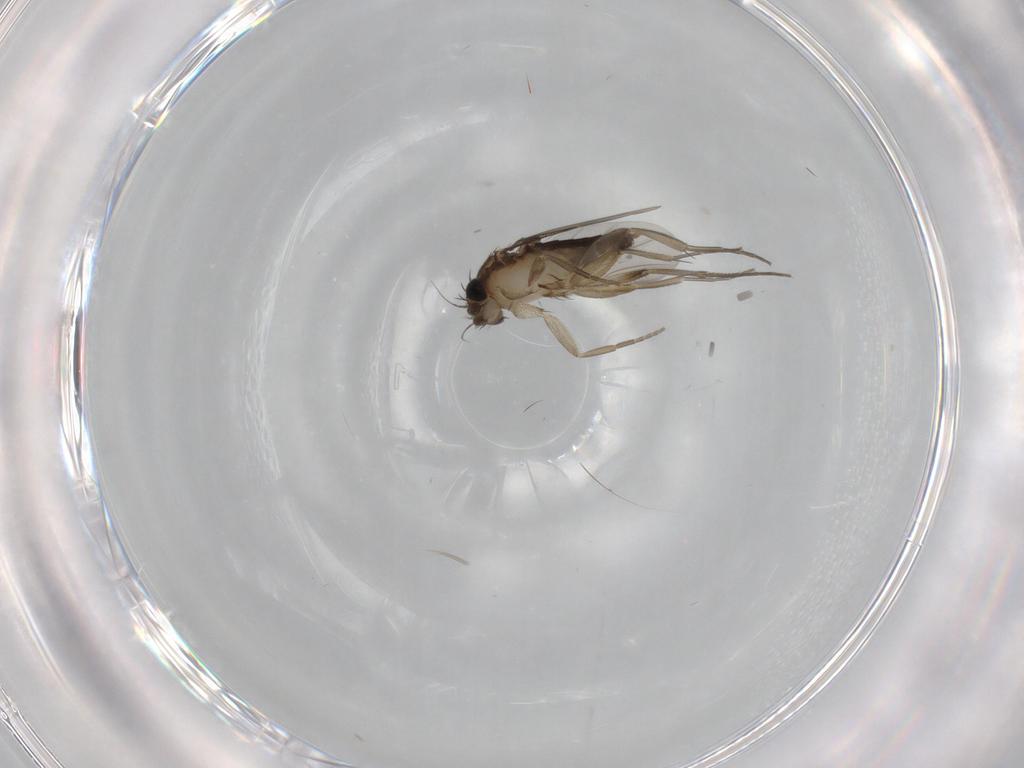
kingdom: Animalia
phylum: Arthropoda
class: Insecta
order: Diptera
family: Phoridae
